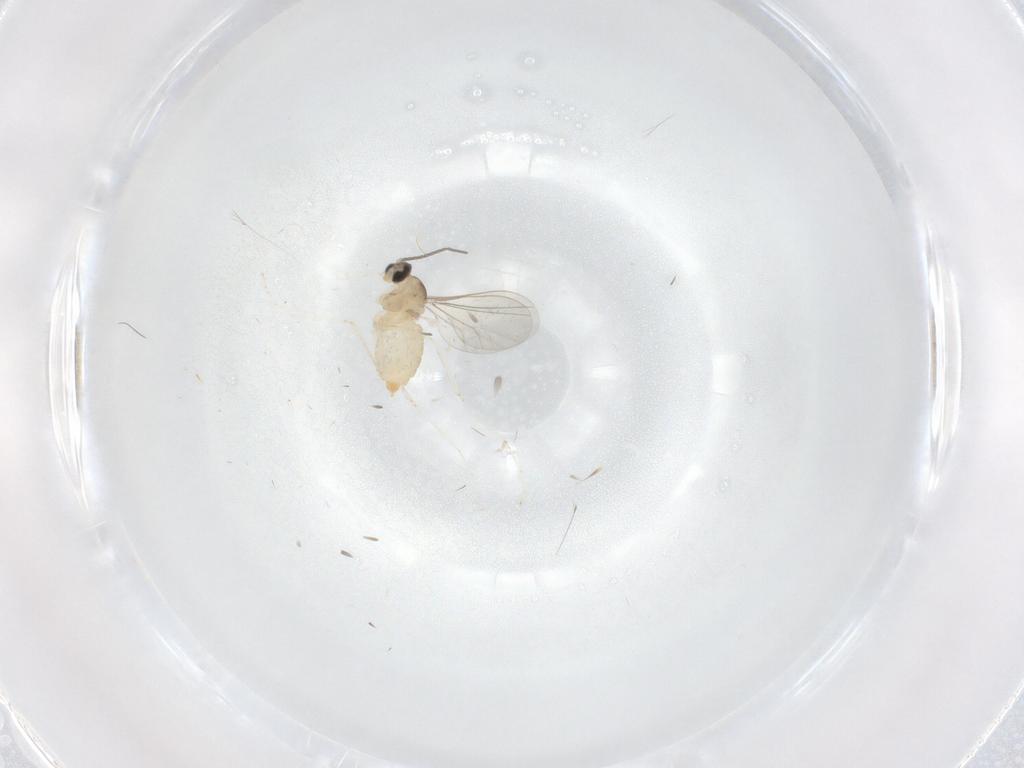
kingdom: Animalia
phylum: Arthropoda
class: Insecta
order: Diptera
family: Cecidomyiidae
